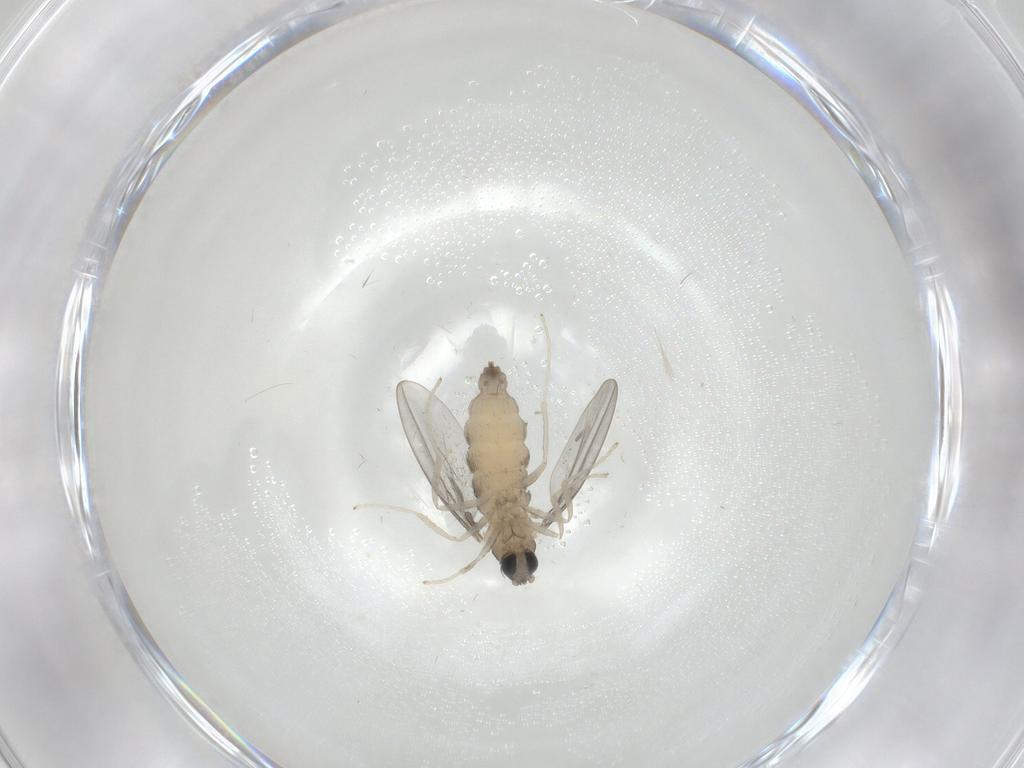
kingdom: Animalia
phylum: Arthropoda
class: Insecta
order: Diptera
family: Cecidomyiidae
